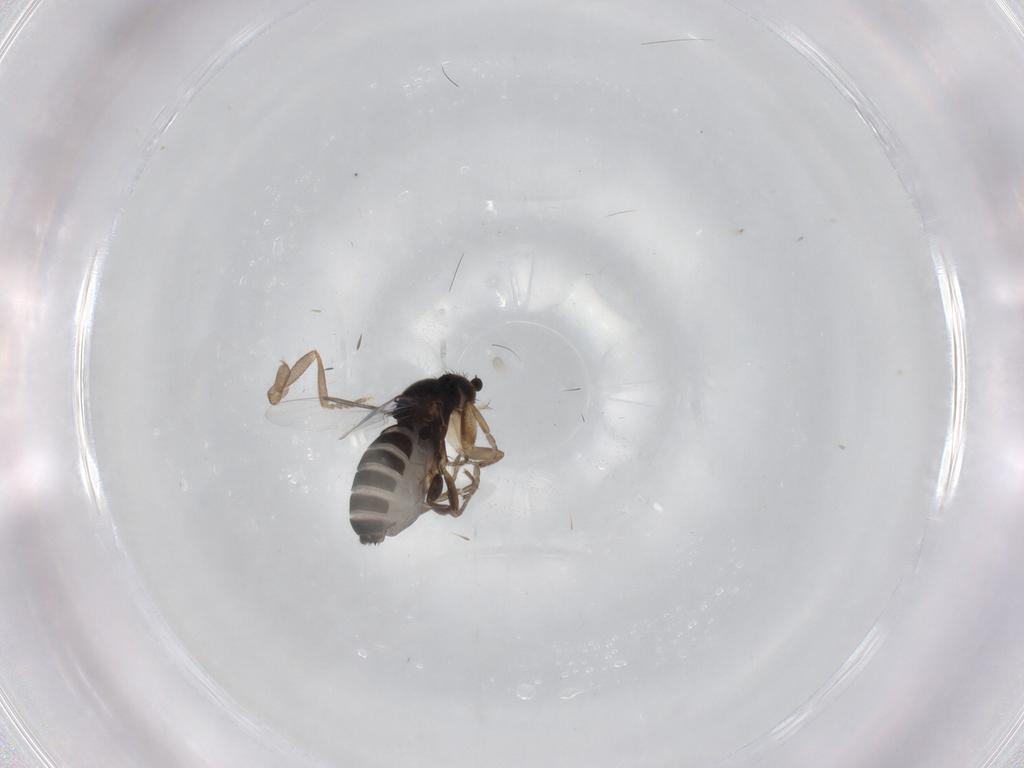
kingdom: Animalia
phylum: Arthropoda
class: Insecta
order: Diptera
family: Phoridae
